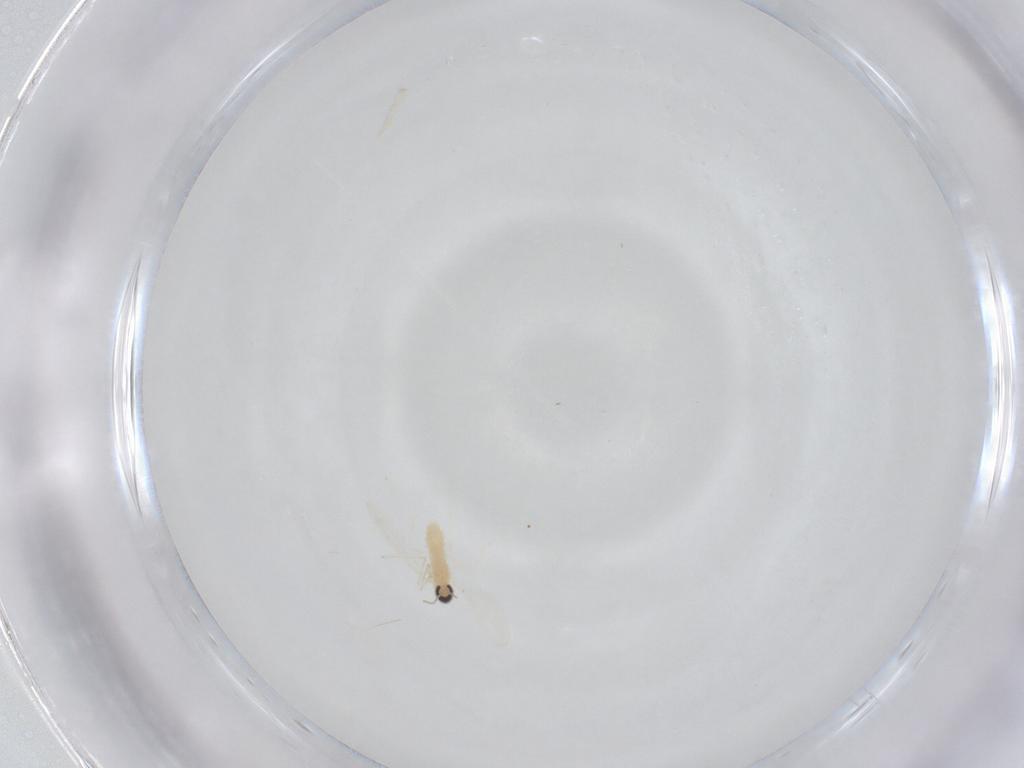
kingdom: Animalia
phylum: Arthropoda
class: Insecta
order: Diptera
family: Cecidomyiidae
